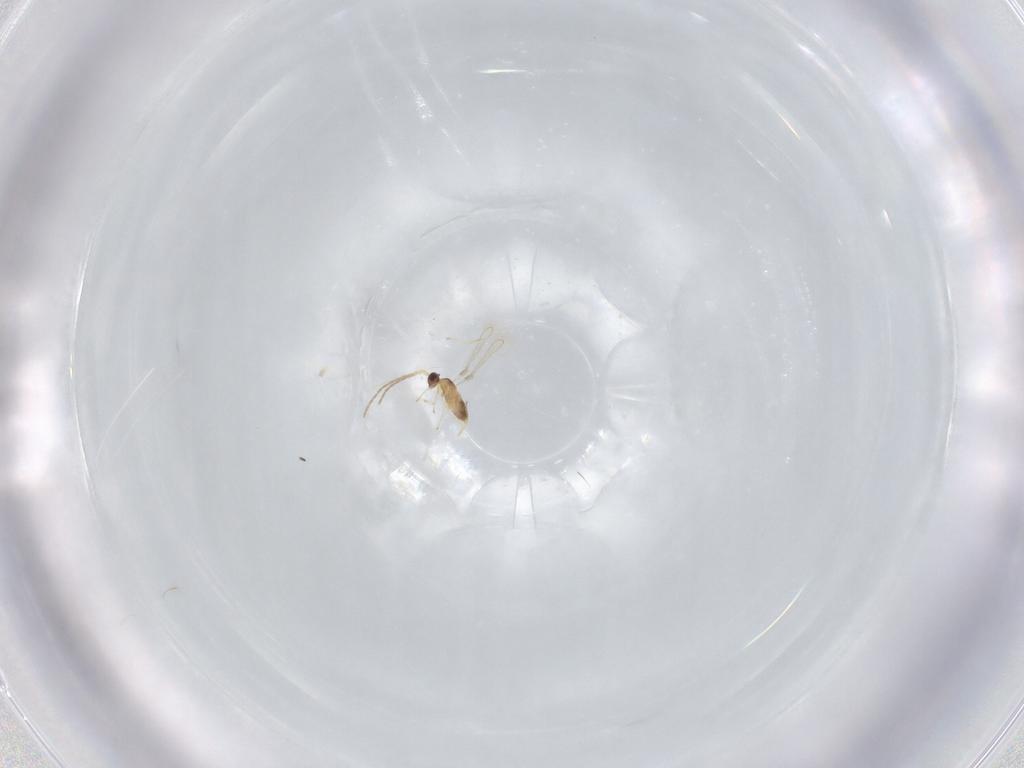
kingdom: Animalia
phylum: Arthropoda
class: Insecta
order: Hymenoptera
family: Mymaridae
